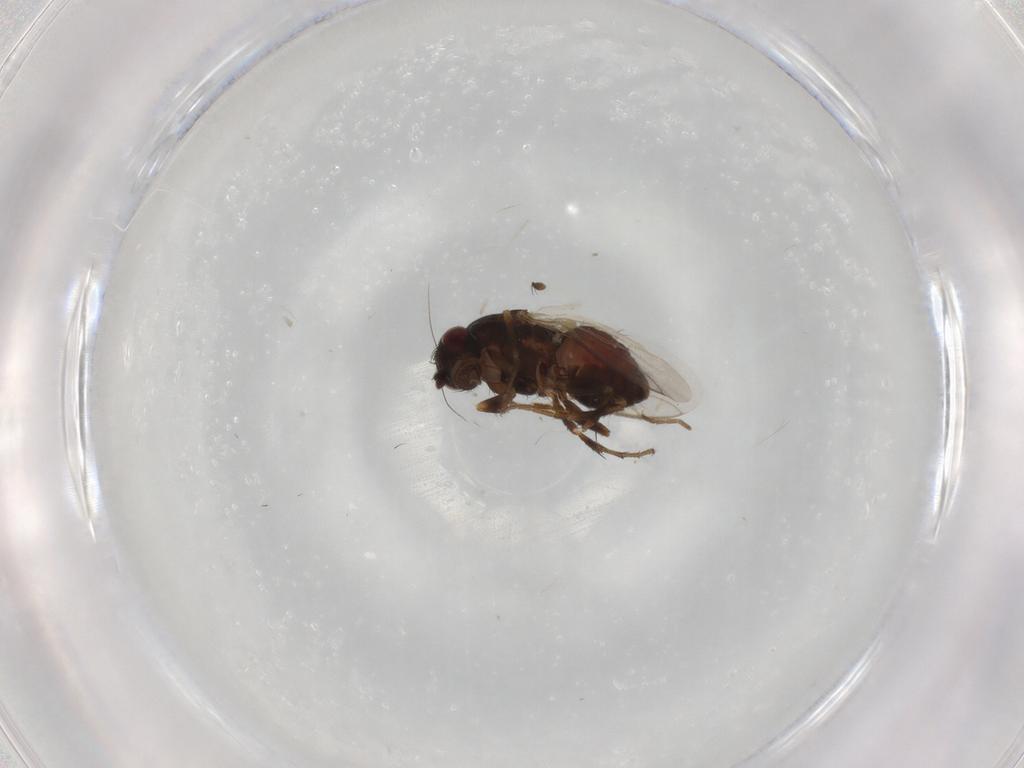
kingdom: Animalia
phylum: Arthropoda
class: Insecta
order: Diptera
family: Sphaeroceridae
